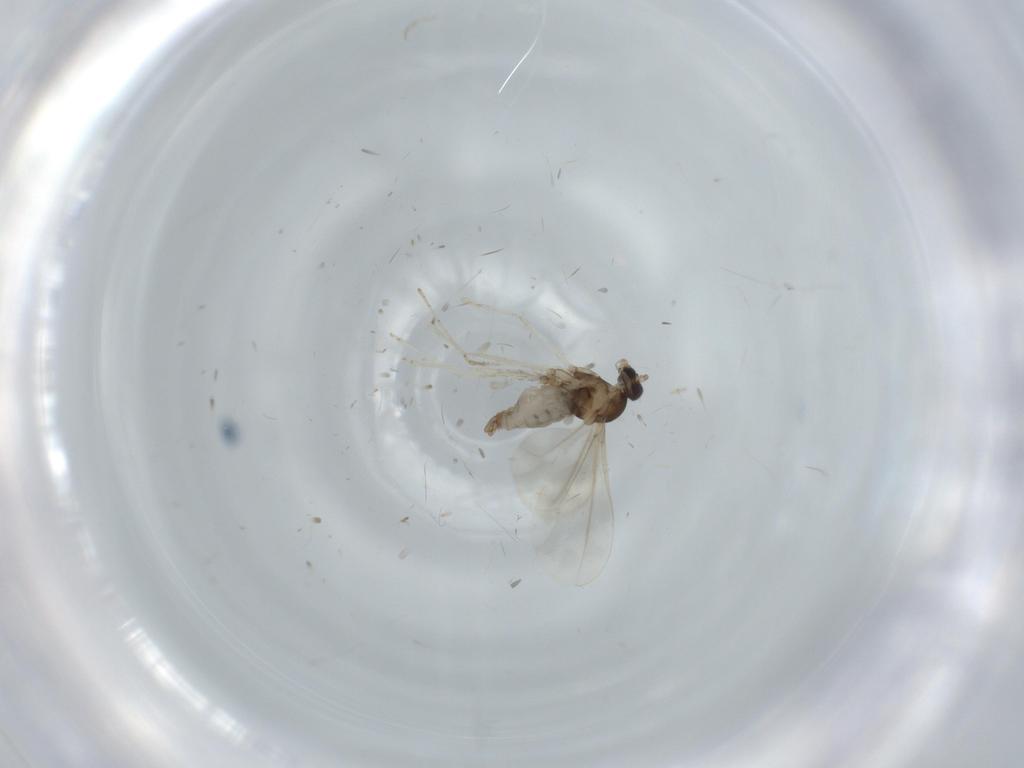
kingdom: Animalia
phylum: Arthropoda
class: Insecta
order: Diptera
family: Cecidomyiidae
